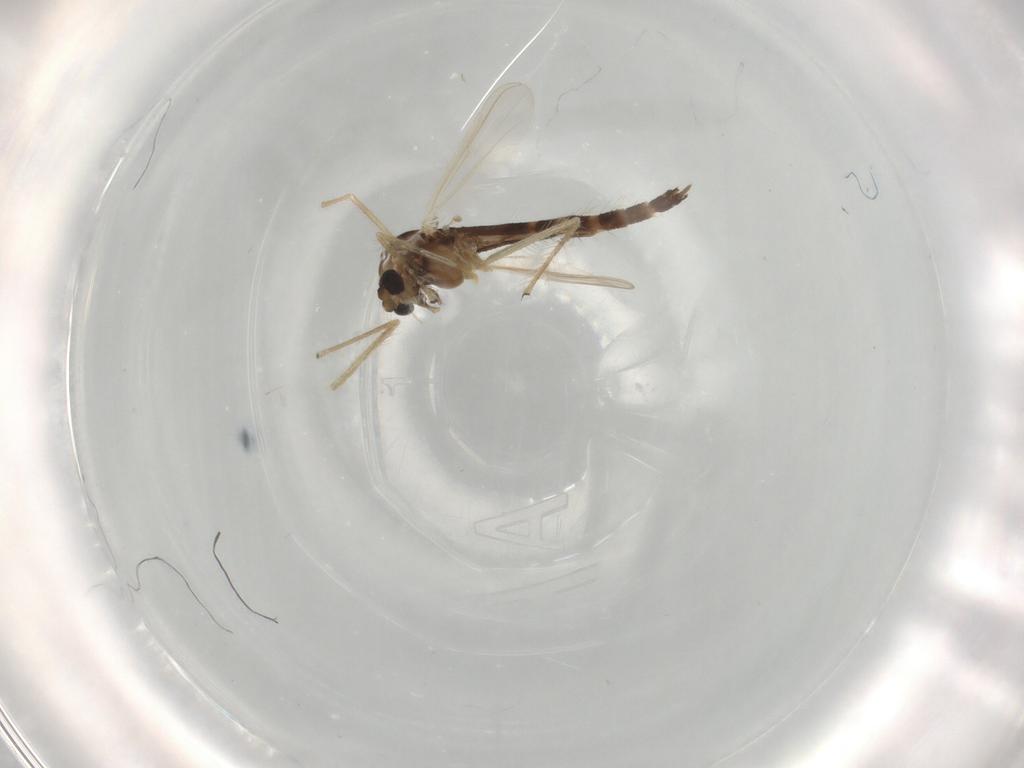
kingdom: Animalia
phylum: Arthropoda
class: Insecta
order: Diptera
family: Chironomidae
